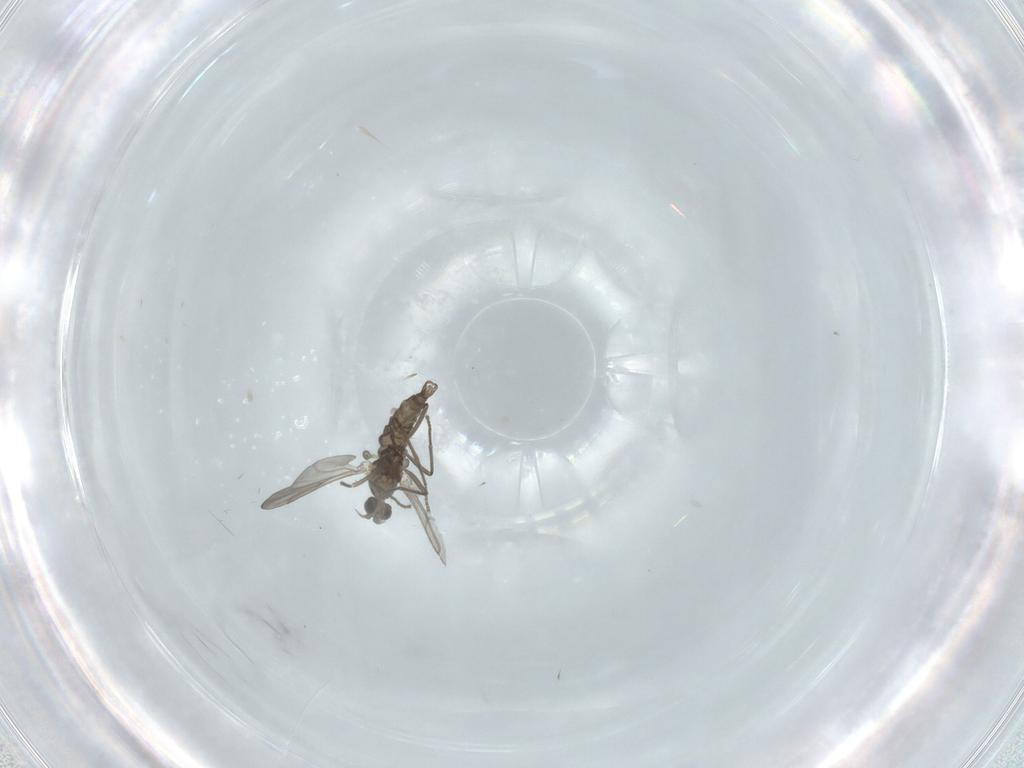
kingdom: Animalia
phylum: Arthropoda
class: Insecta
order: Diptera
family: Cecidomyiidae
